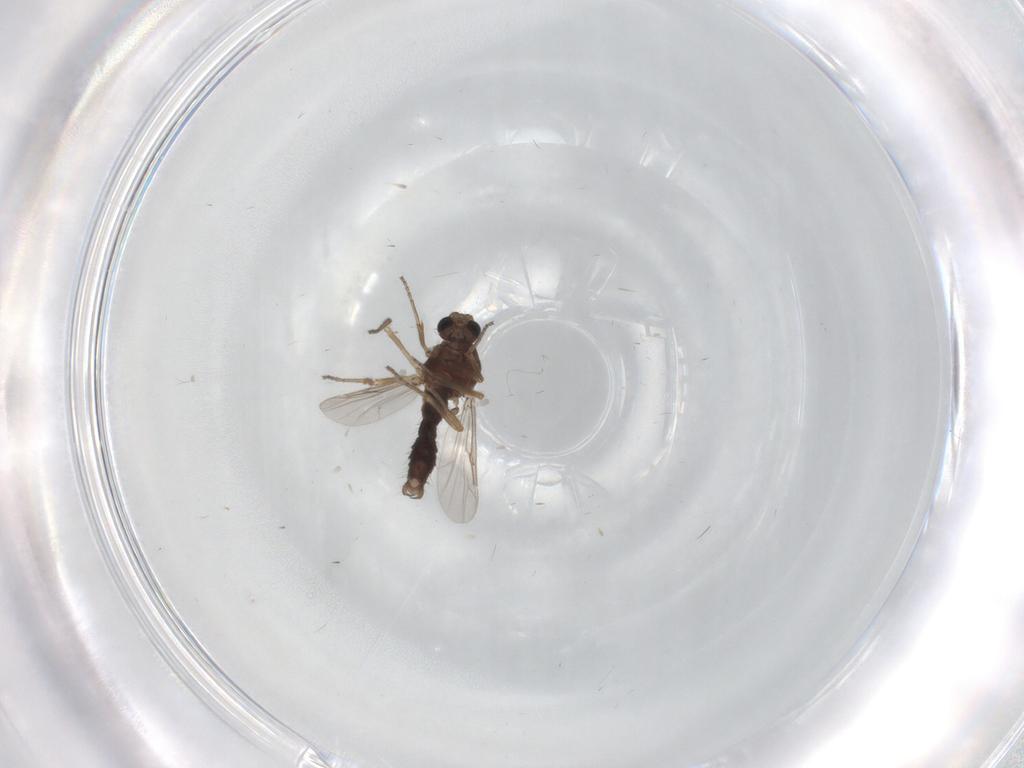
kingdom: Animalia
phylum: Arthropoda
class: Insecta
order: Diptera
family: Ceratopogonidae
